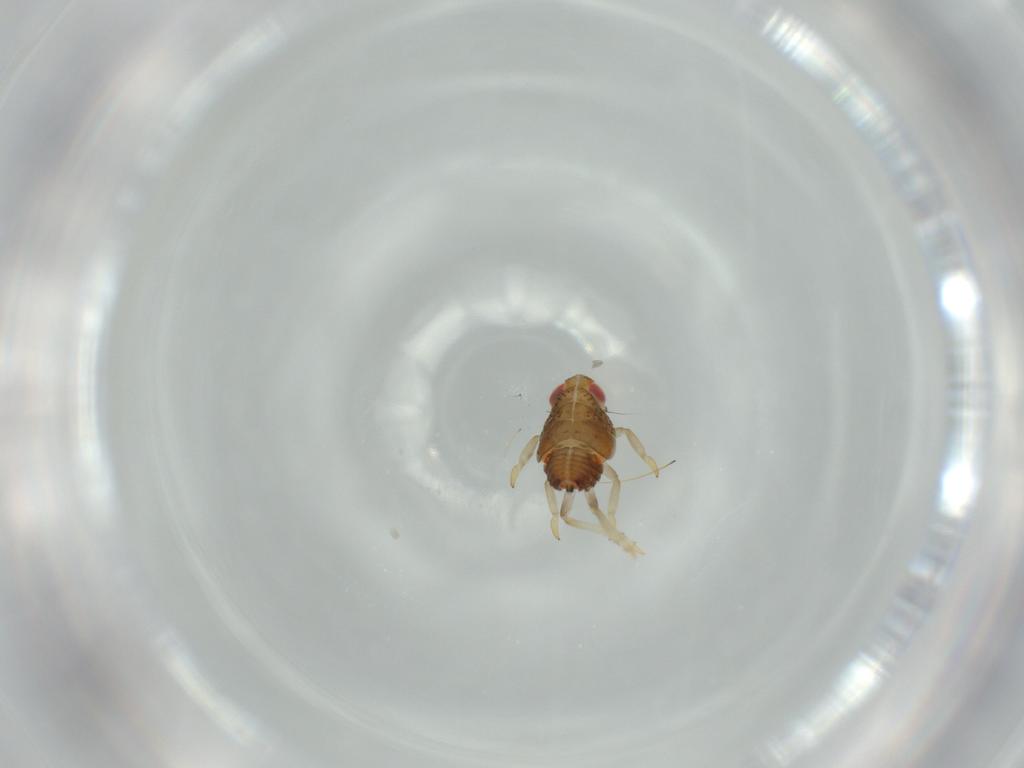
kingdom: Animalia
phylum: Arthropoda
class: Insecta
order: Hemiptera
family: Issidae
